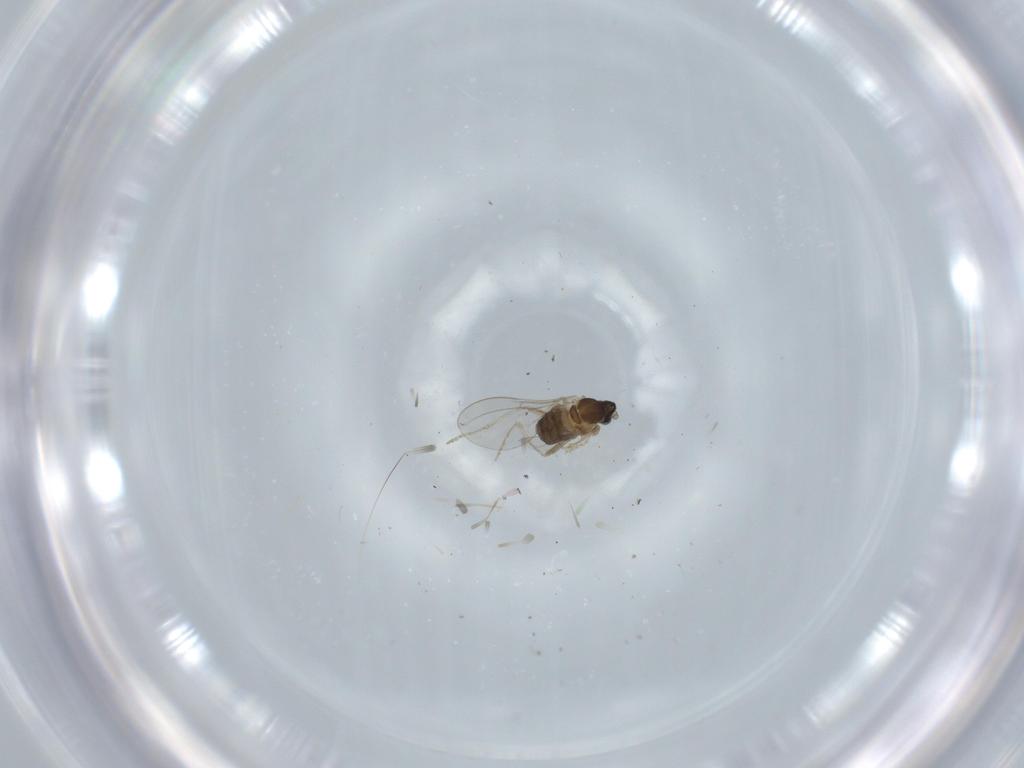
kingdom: Animalia
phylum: Arthropoda
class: Insecta
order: Diptera
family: Cecidomyiidae
